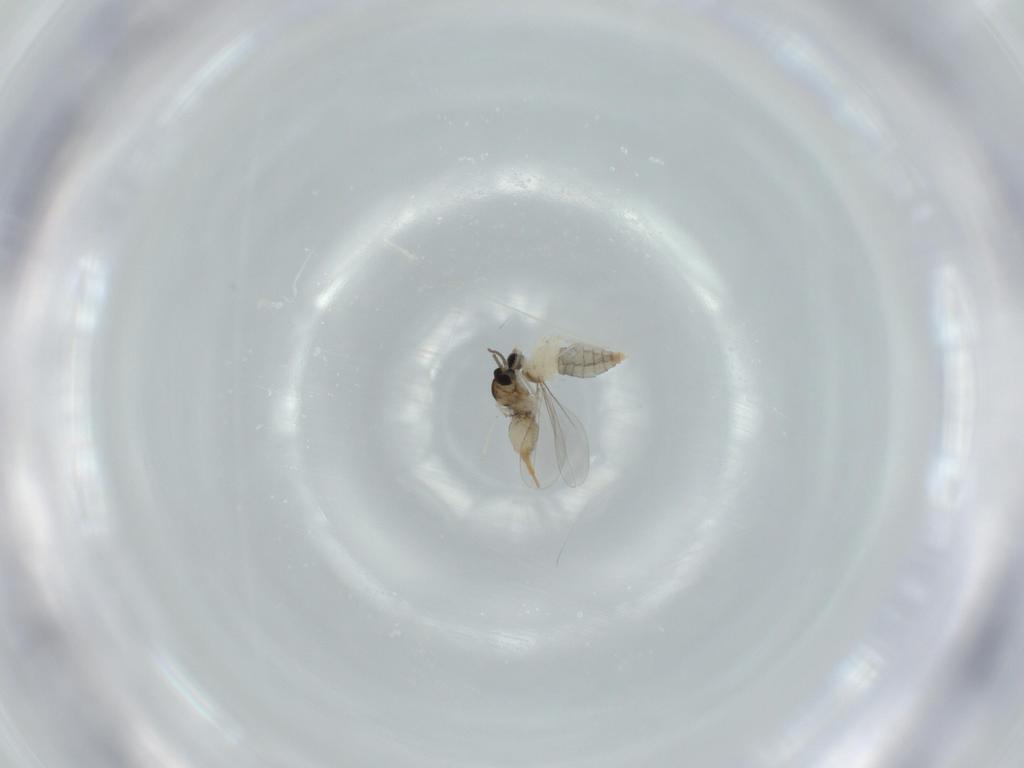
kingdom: Animalia
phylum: Arthropoda
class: Insecta
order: Diptera
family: Cecidomyiidae
